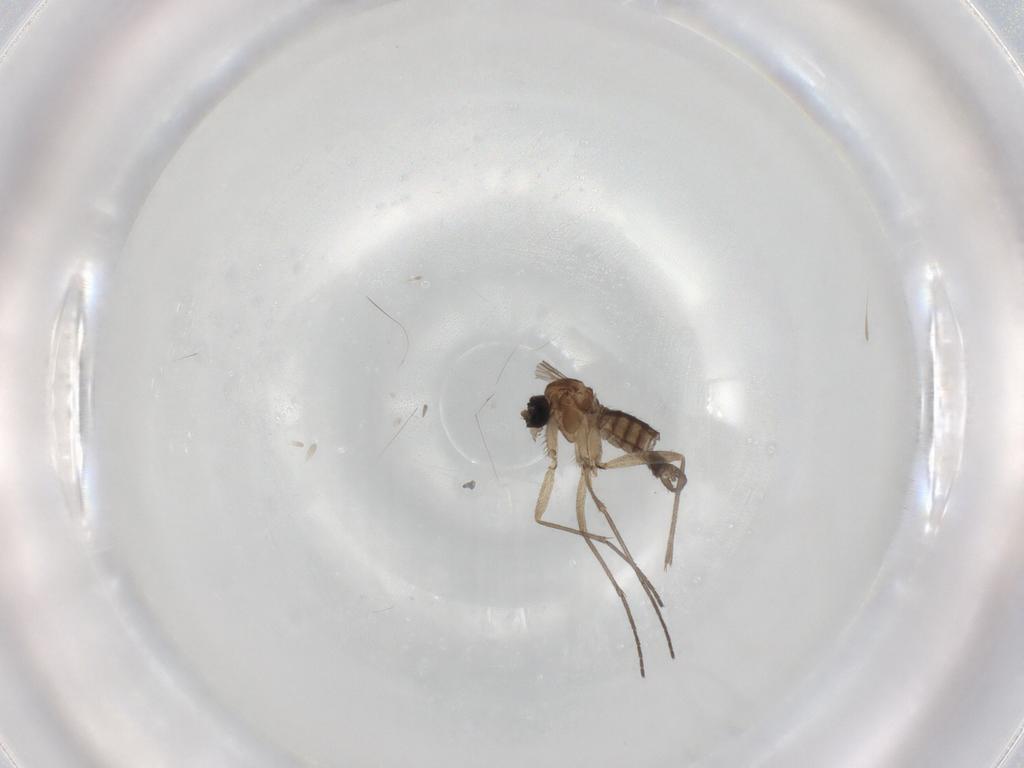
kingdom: Animalia
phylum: Arthropoda
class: Insecta
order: Diptera
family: Sciaridae
